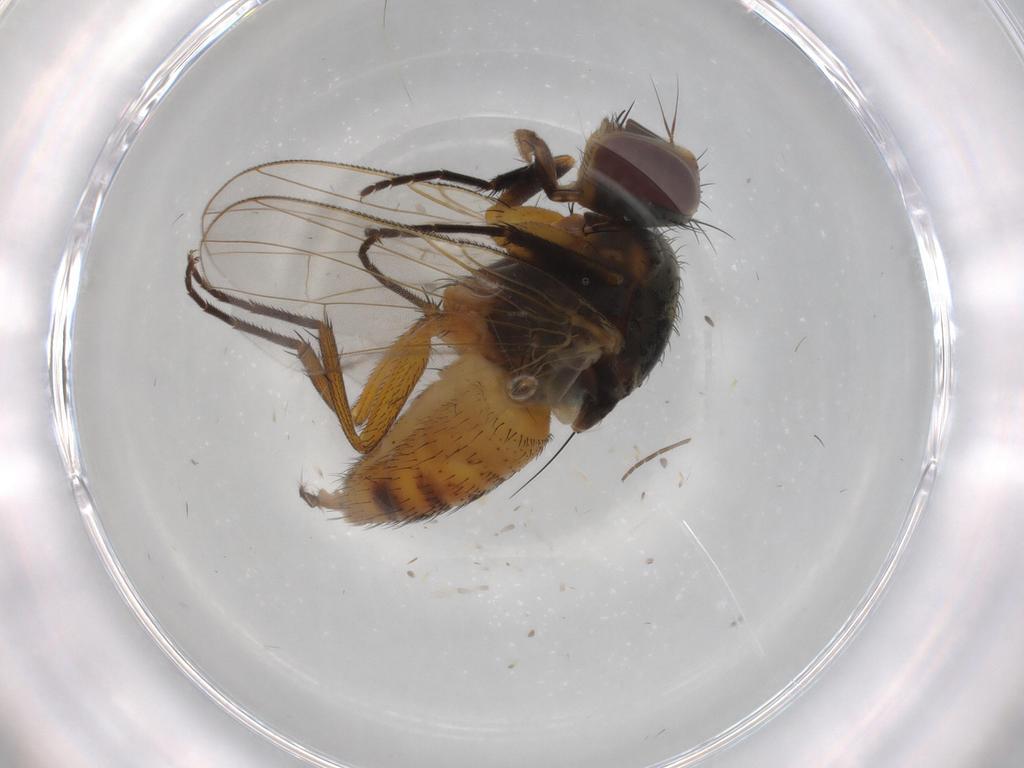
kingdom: Animalia
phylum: Arthropoda
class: Insecta
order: Diptera
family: Muscidae
